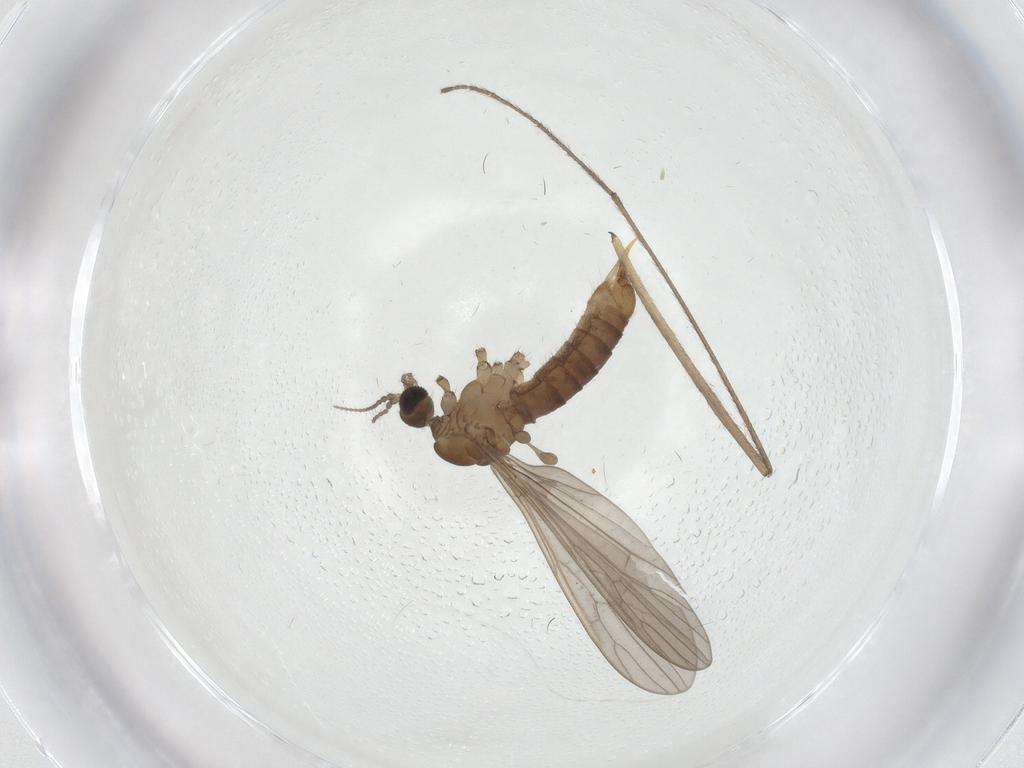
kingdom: Animalia
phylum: Arthropoda
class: Insecta
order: Diptera
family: Limoniidae
